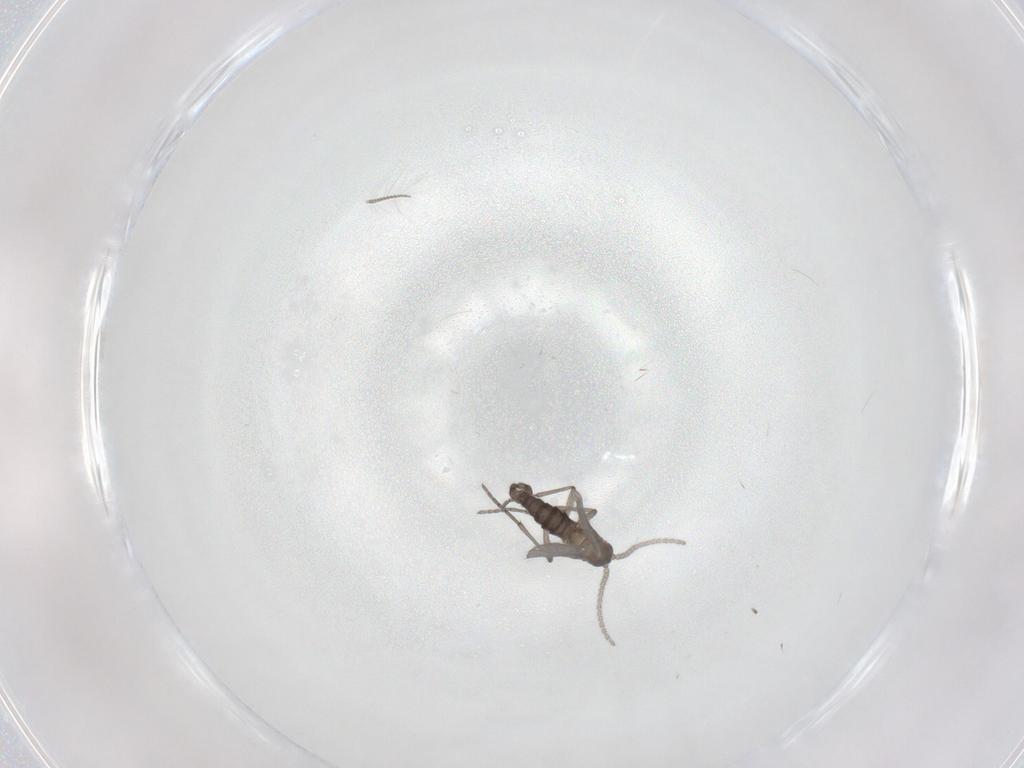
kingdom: Animalia
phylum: Arthropoda
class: Insecta
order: Diptera
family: Sciaridae
